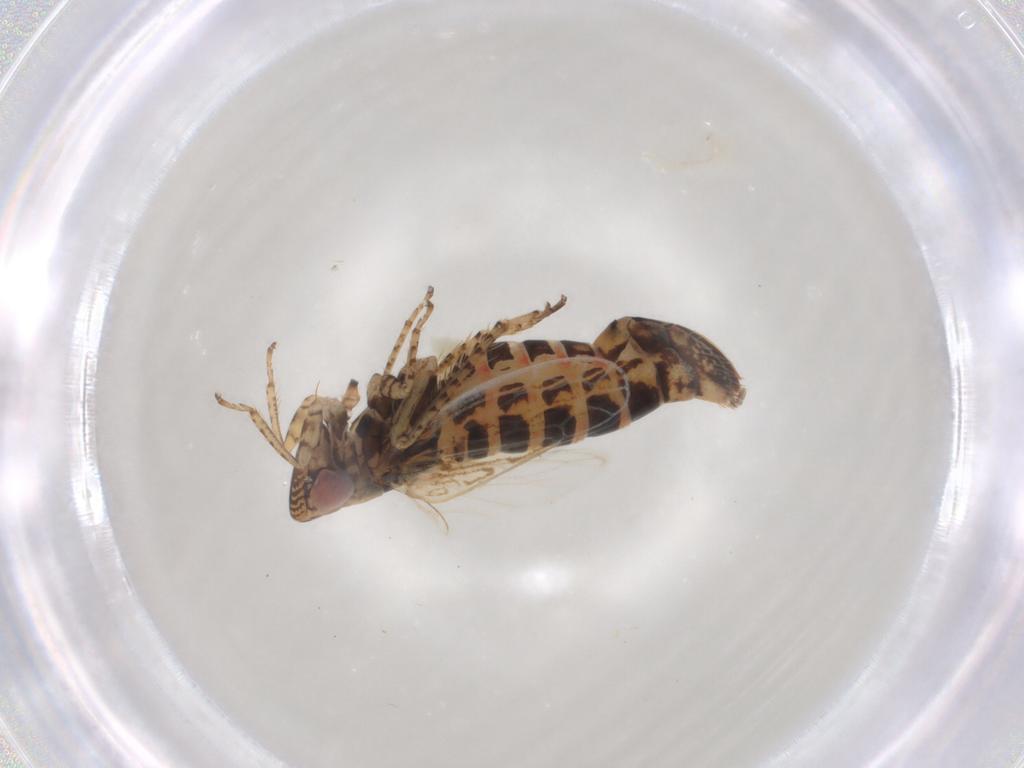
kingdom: Animalia
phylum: Arthropoda
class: Insecta
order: Hemiptera
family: Cicadellidae
